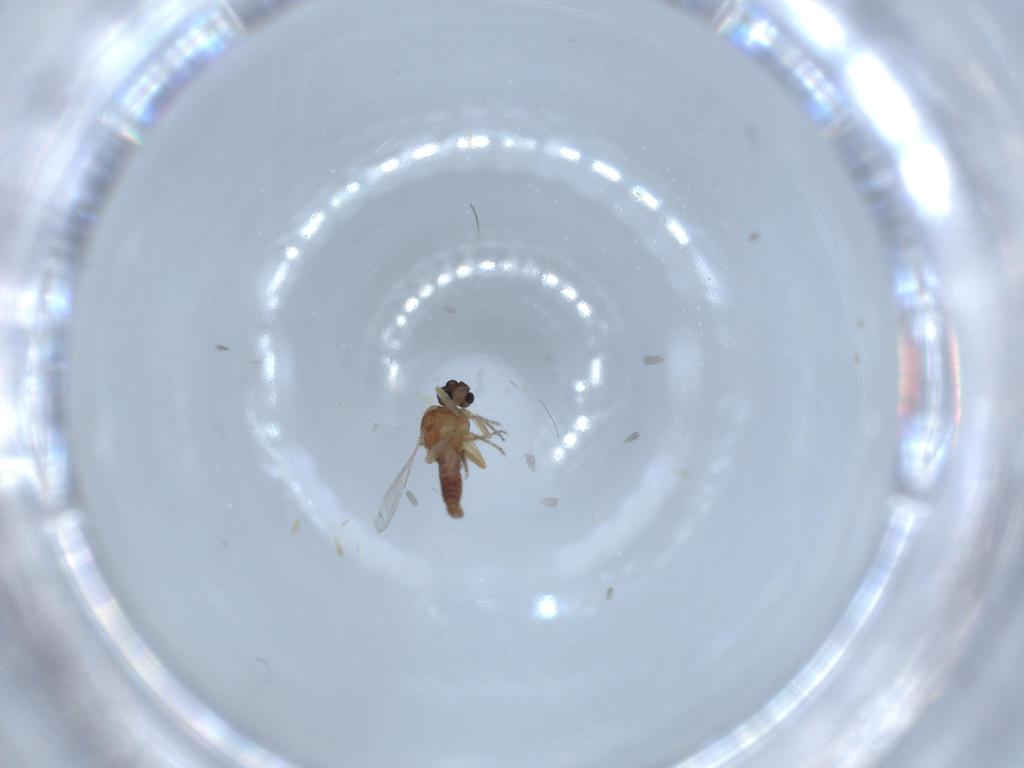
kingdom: Animalia
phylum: Arthropoda
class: Insecta
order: Diptera
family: Ceratopogonidae
